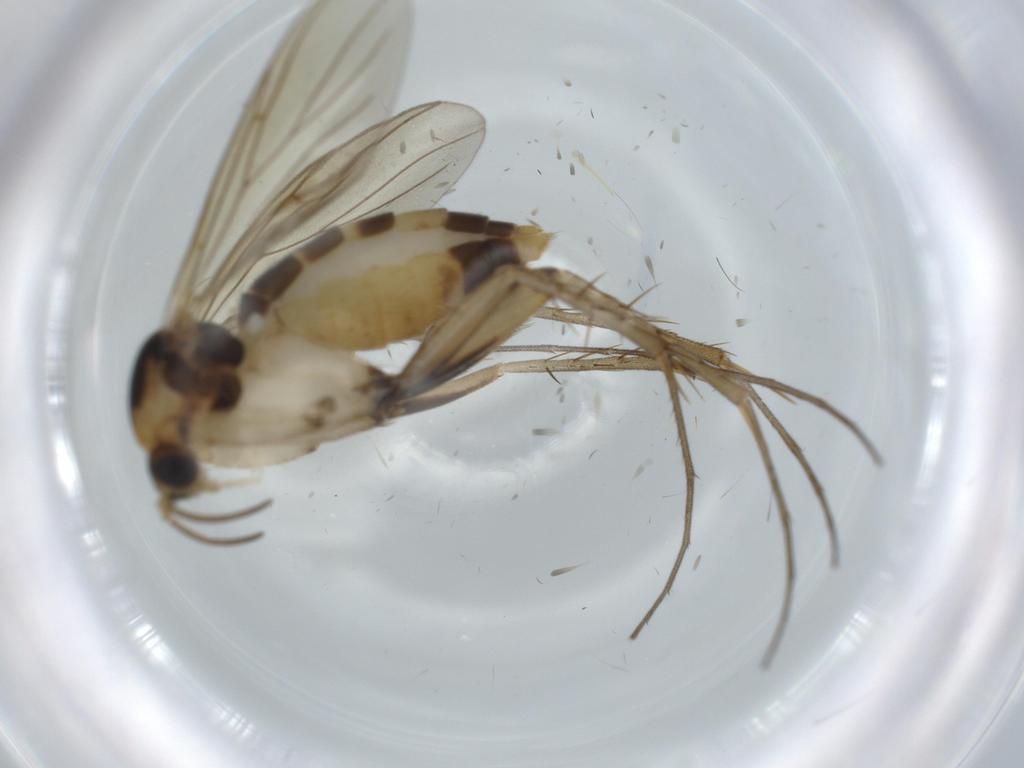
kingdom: Animalia
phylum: Arthropoda
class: Insecta
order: Diptera
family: Mycetophilidae
